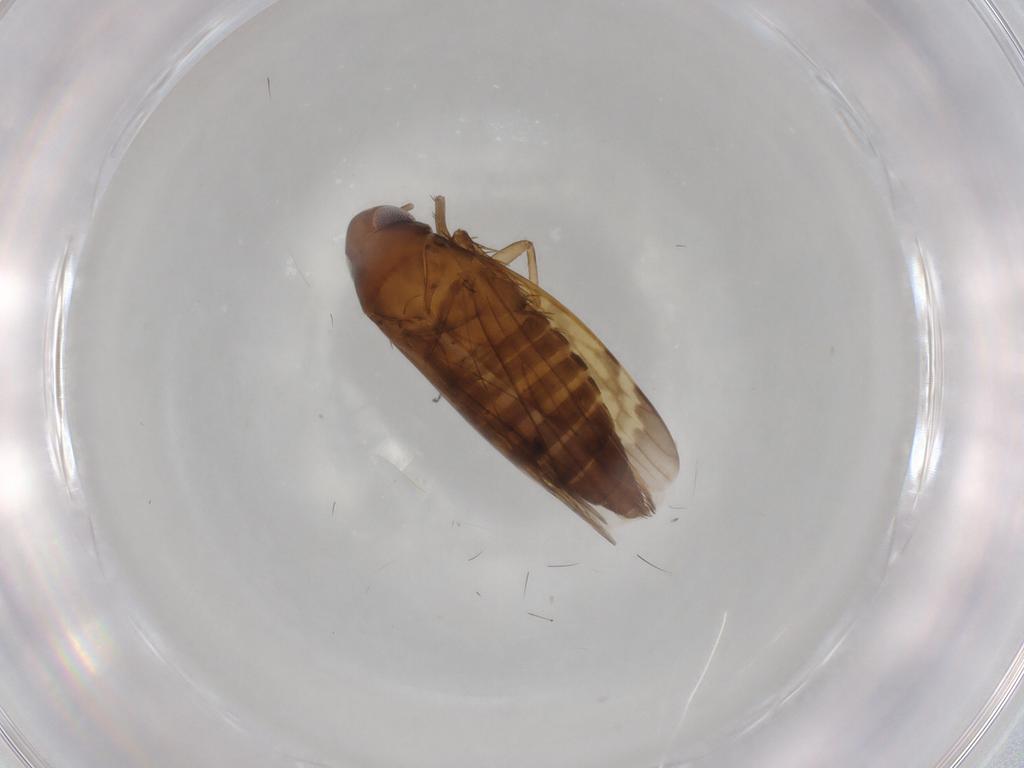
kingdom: Animalia
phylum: Arthropoda
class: Insecta
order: Hemiptera
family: Cicadellidae
